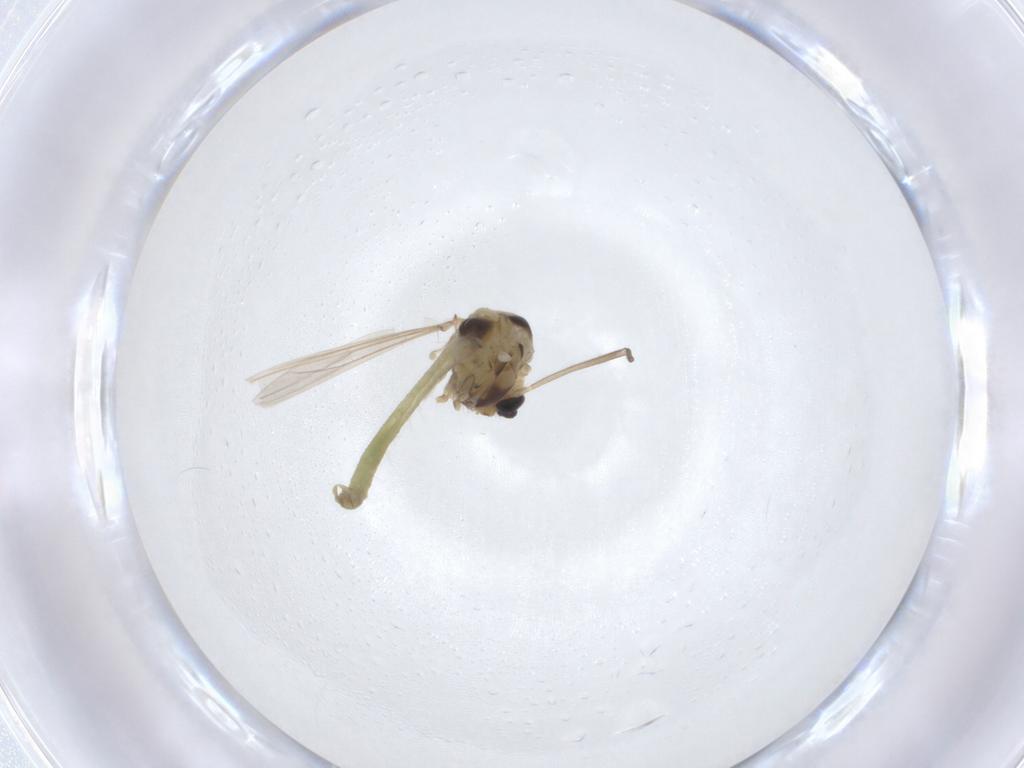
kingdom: Animalia
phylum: Arthropoda
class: Insecta
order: Diptera
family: Chironomidae
